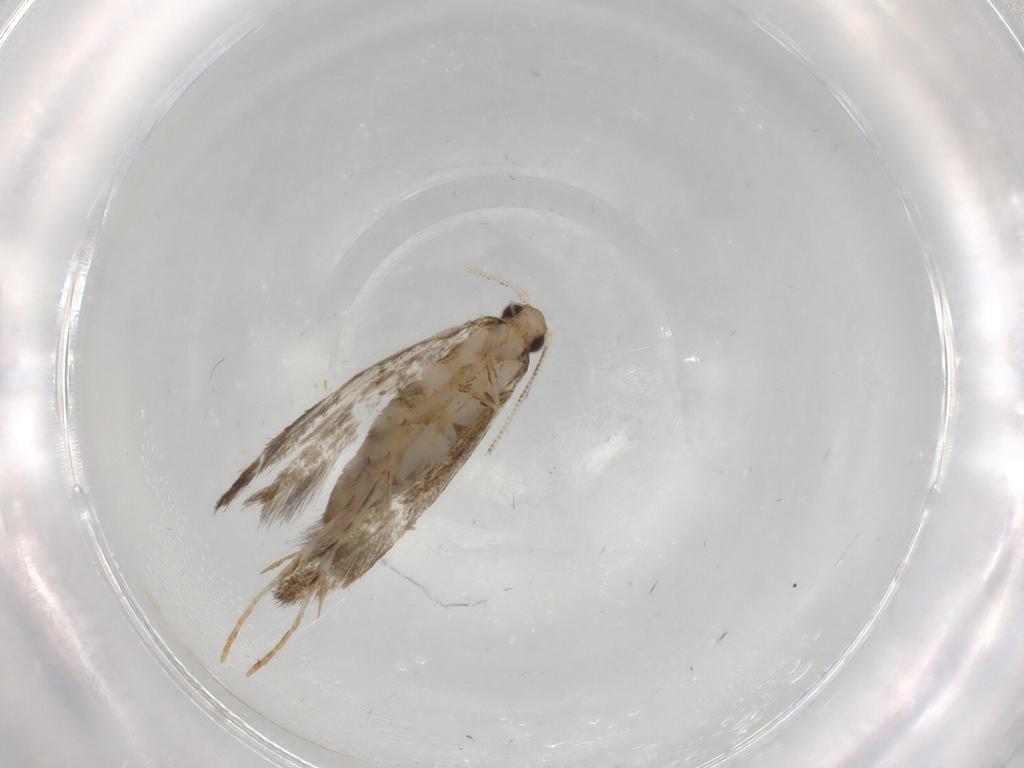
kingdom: Animalia
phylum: Arthropoda
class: Insecta
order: Lepidoptera
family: Tineidae
